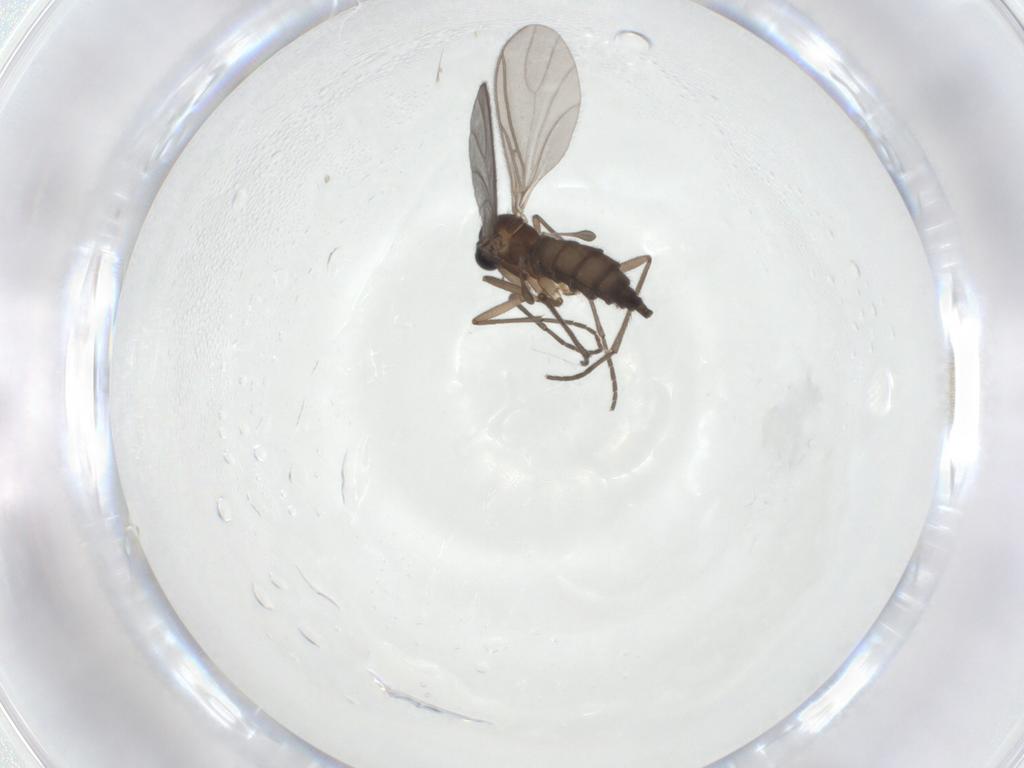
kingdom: Animalia
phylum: Arthropoda
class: Insecta
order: Diptera
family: Sciaridae
